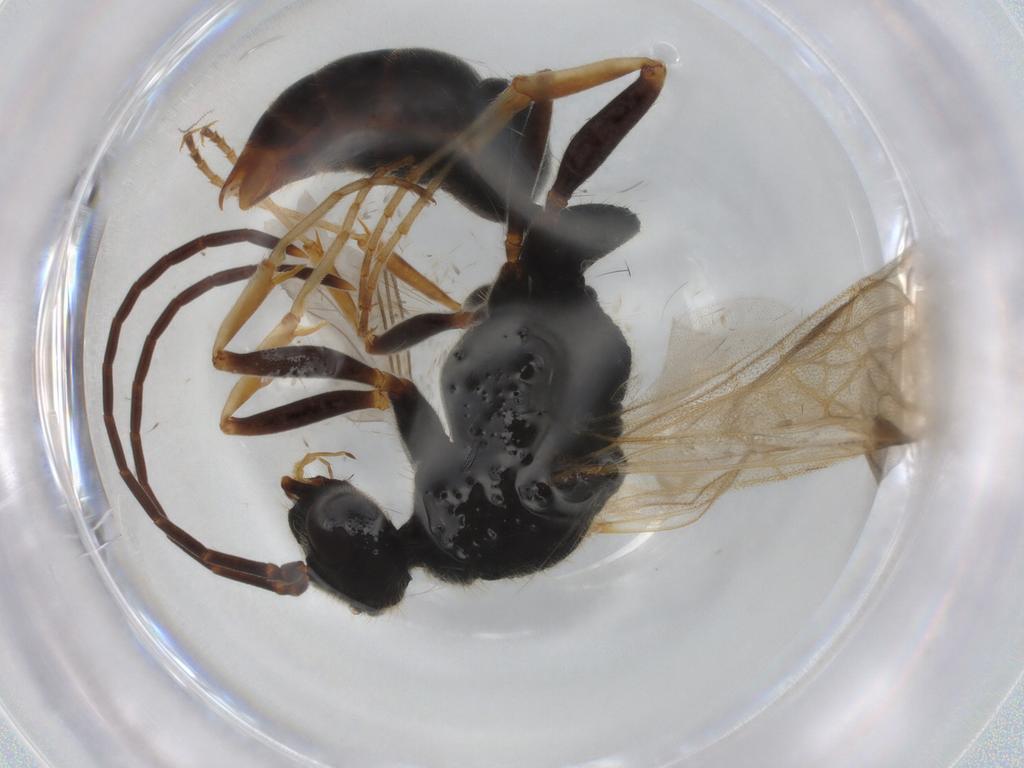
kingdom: Animalia
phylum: Arthropoda
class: Insecta
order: Hymenoptera
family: Formicidae
